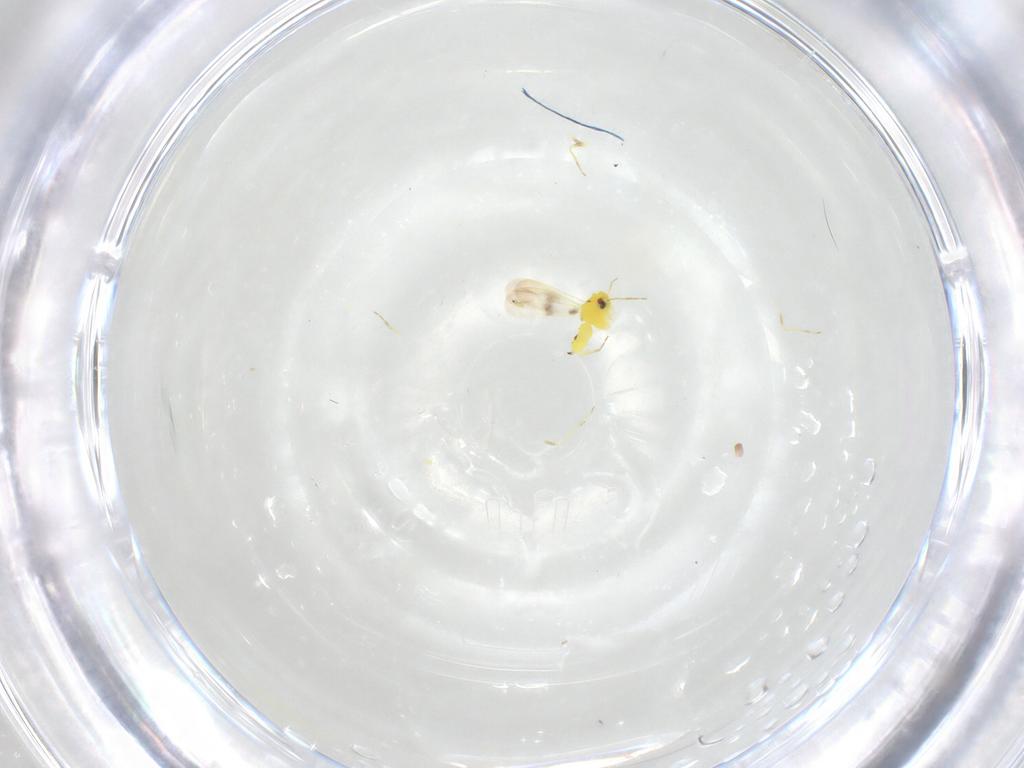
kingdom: Animalia
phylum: Arthropoda
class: Insecta
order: Hemiptera
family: Aleyrodidae
